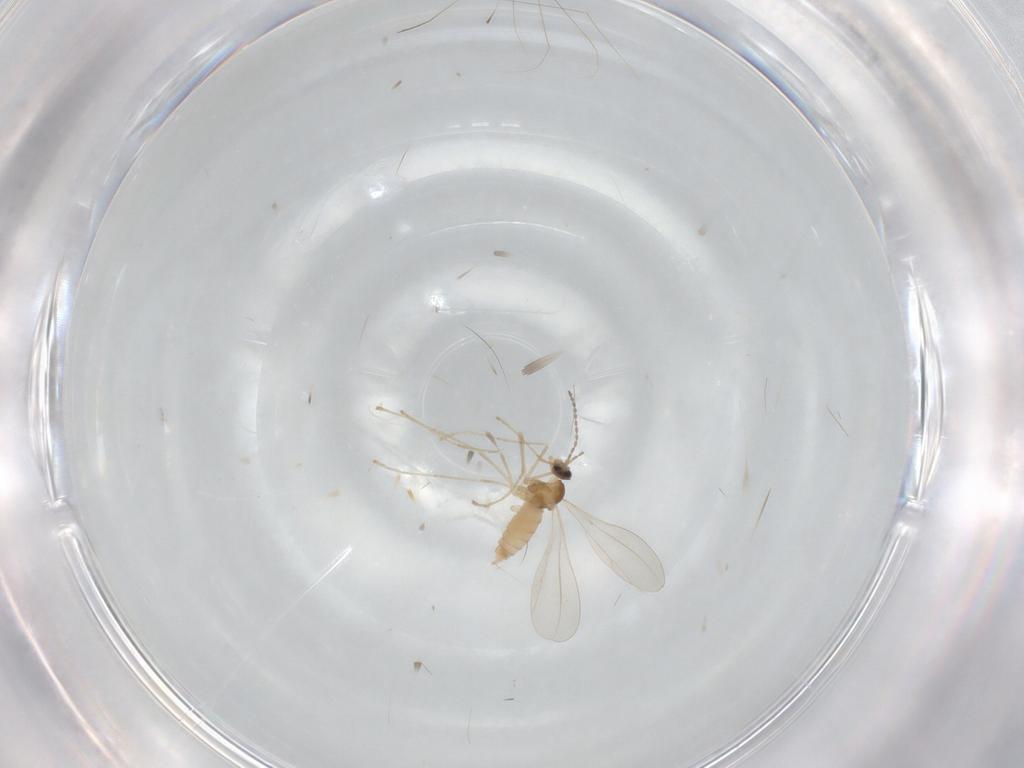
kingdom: Animalia
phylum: Arthropoda
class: Insecta
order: Diptera
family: Cecidomyiidae
